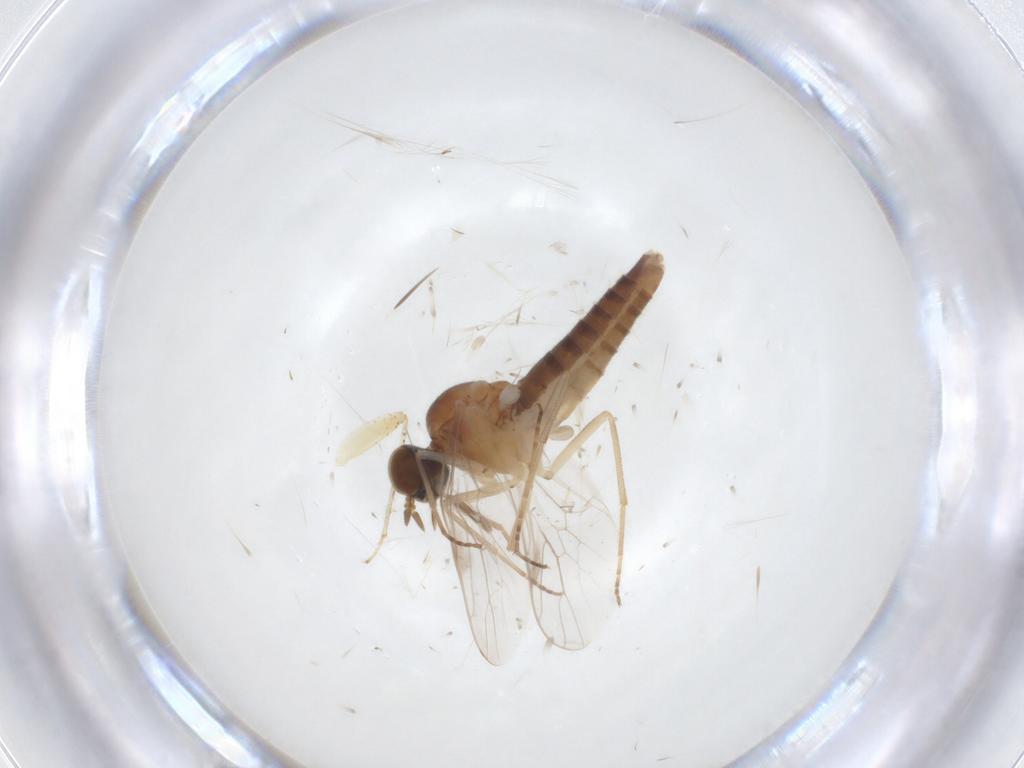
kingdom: Animalia
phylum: Arthropoda
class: Insecta
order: Diptera
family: Scenopinidae
